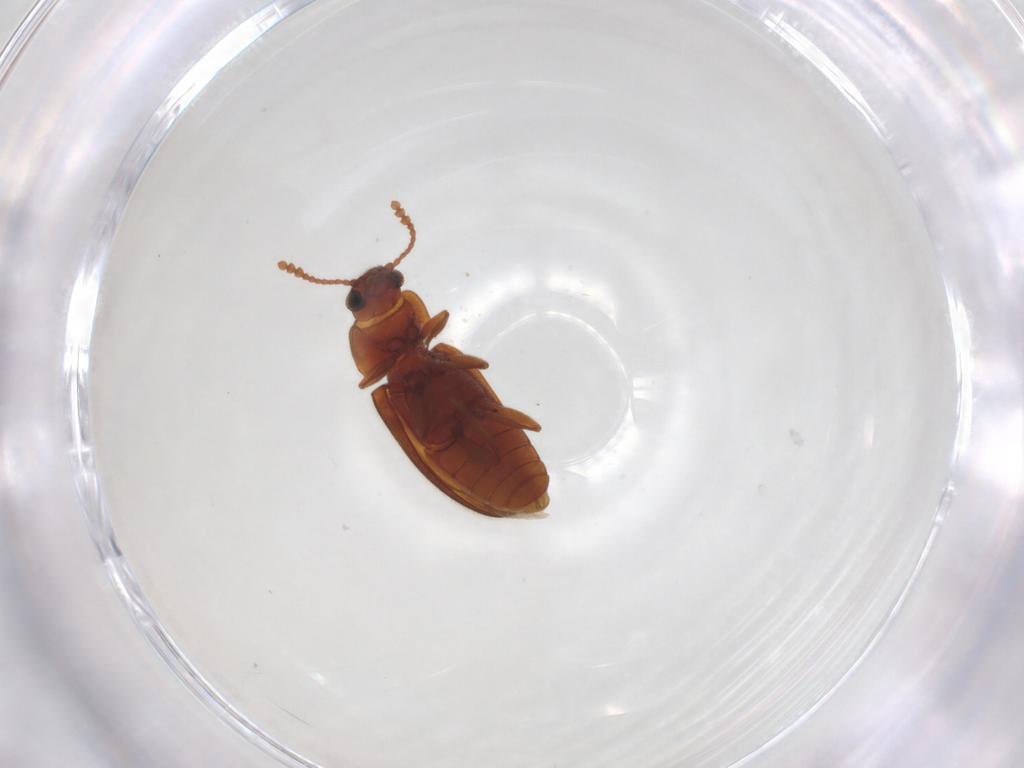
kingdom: Animalia
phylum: Arthropoda
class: Insecta
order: Coleoptera
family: Erotylidae
